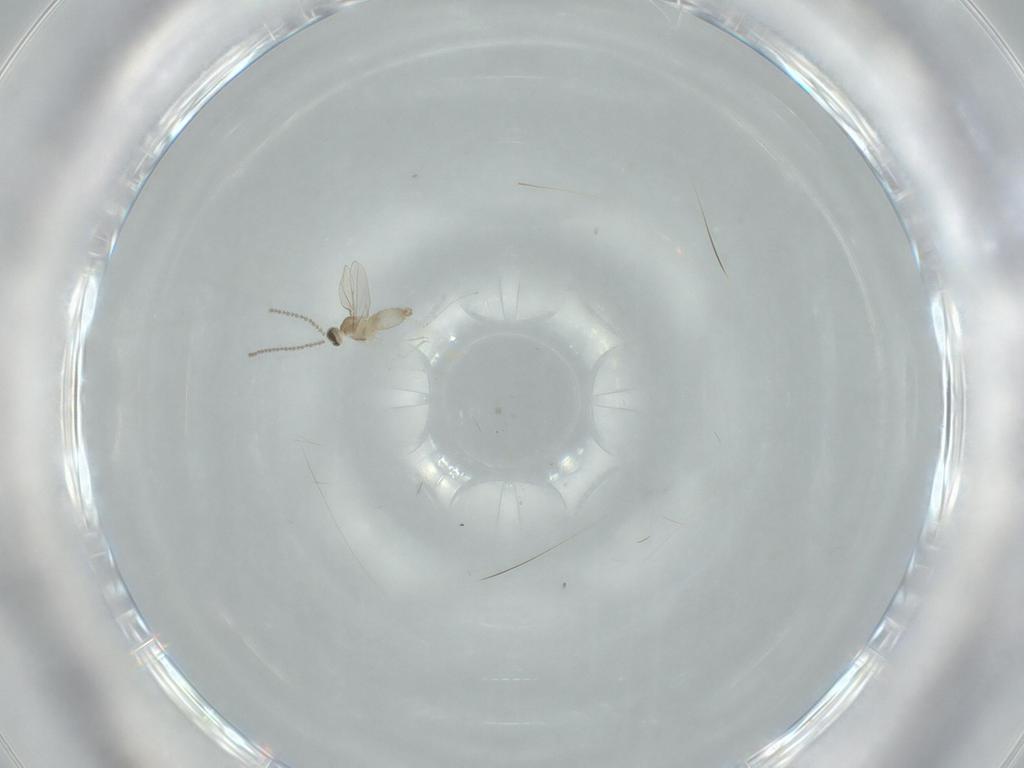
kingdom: Animalia
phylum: Arthropoda
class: Insecta
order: Diptera
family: Cecidomyiidae
